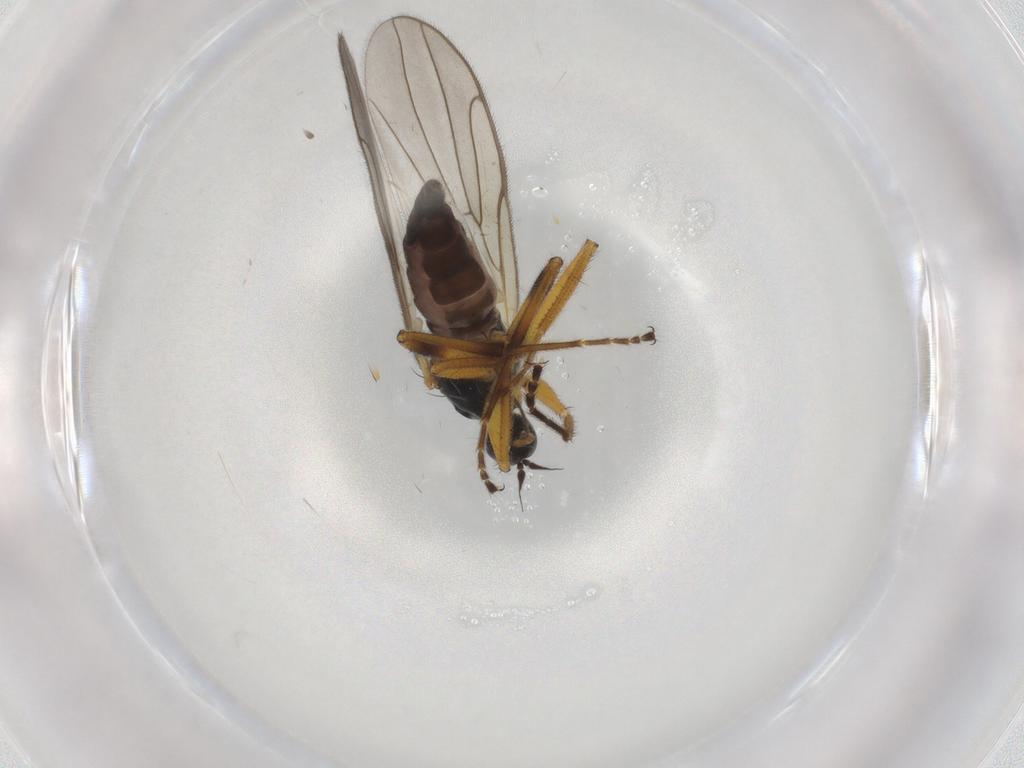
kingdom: Animalia
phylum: Arthropoda
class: Insecta
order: Diptera
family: Hybotidae
